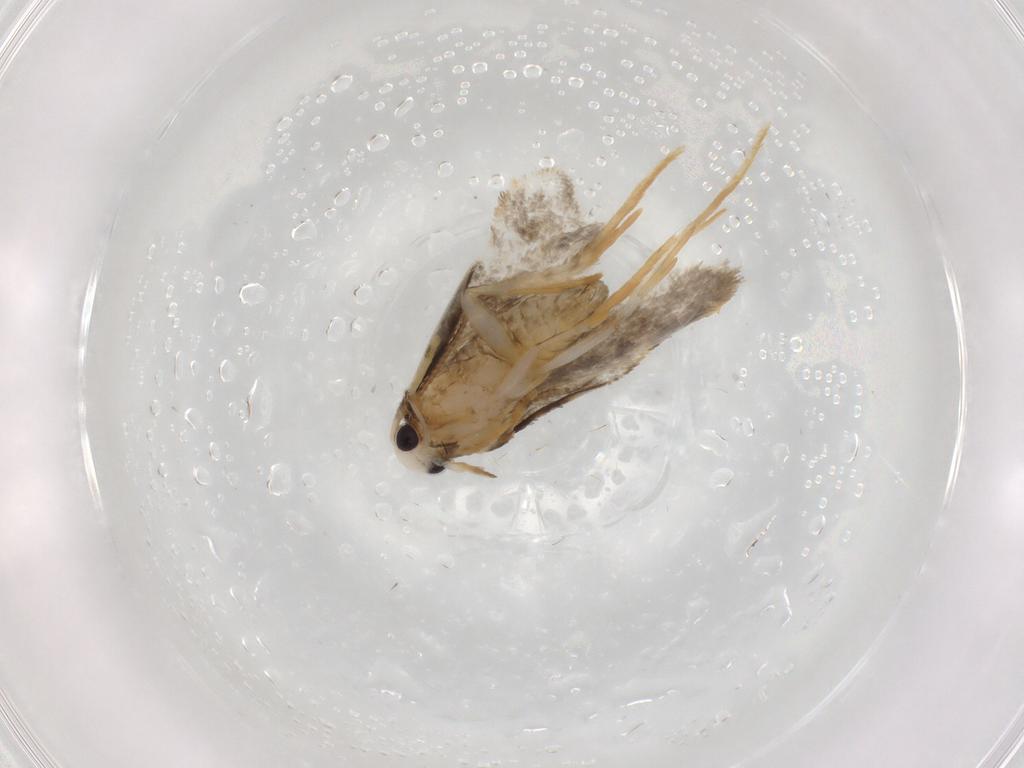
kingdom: Animalia
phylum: Arthropoda
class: Insecta
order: Lepidoptera
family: Psychidae
